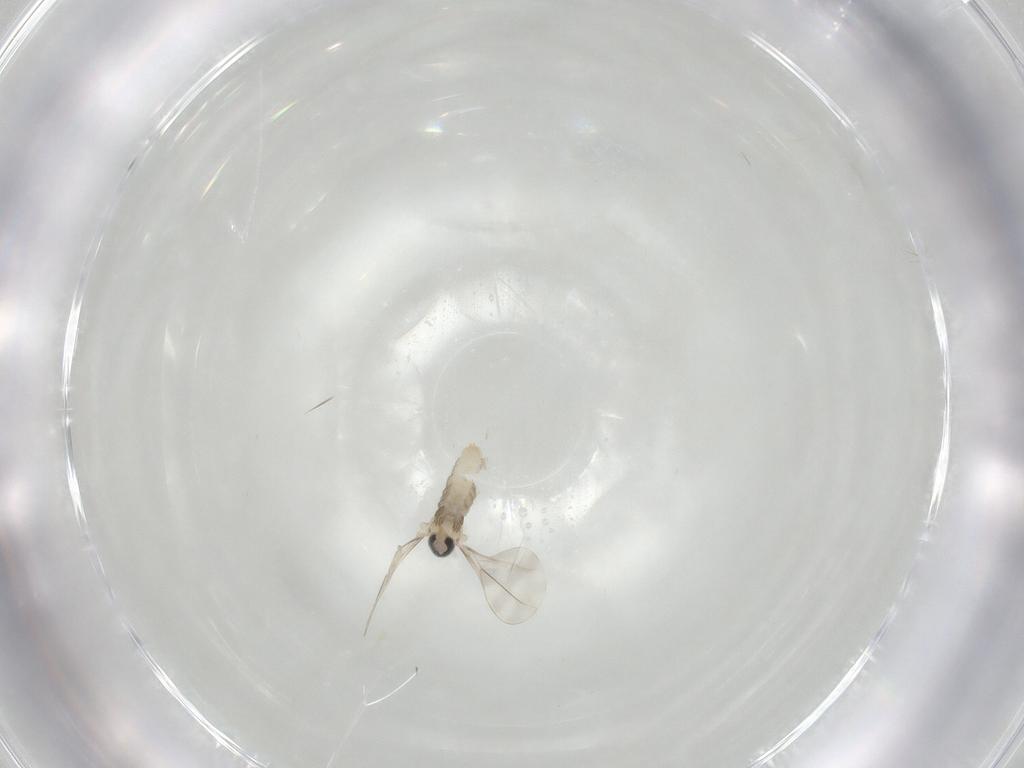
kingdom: Animalia
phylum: Arthropoda
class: Insecta
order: Diptera
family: Cecidomyiidae
